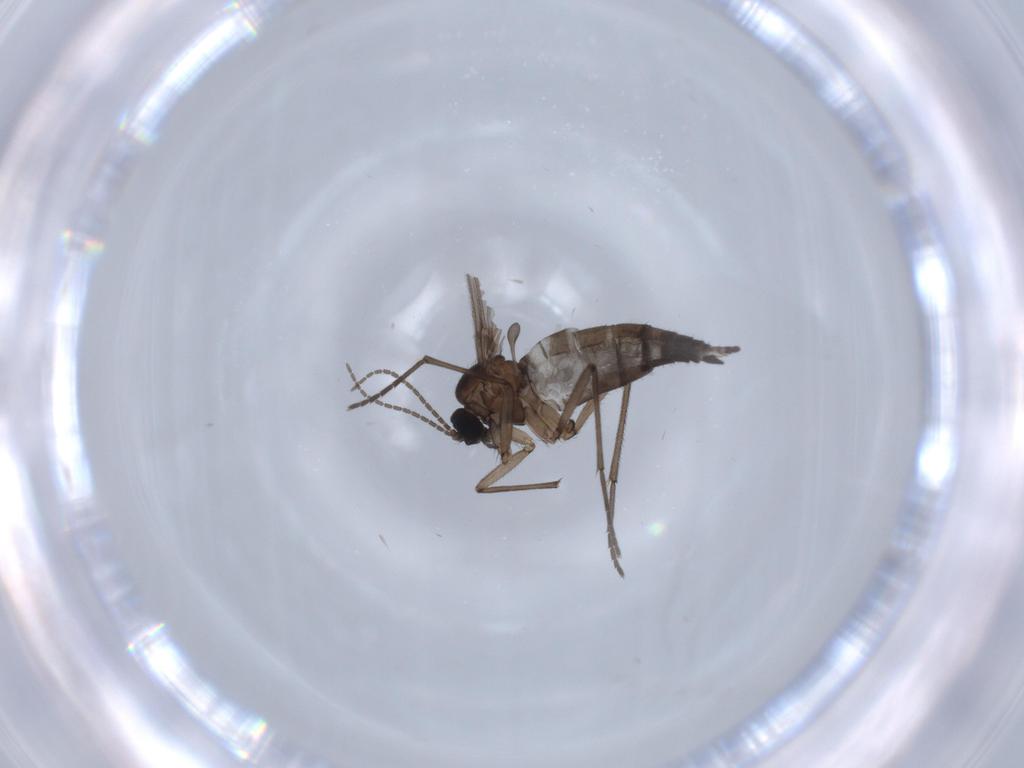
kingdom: Animalia
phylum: Arthropoda
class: Insecta
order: Diptera
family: Sciaridae
